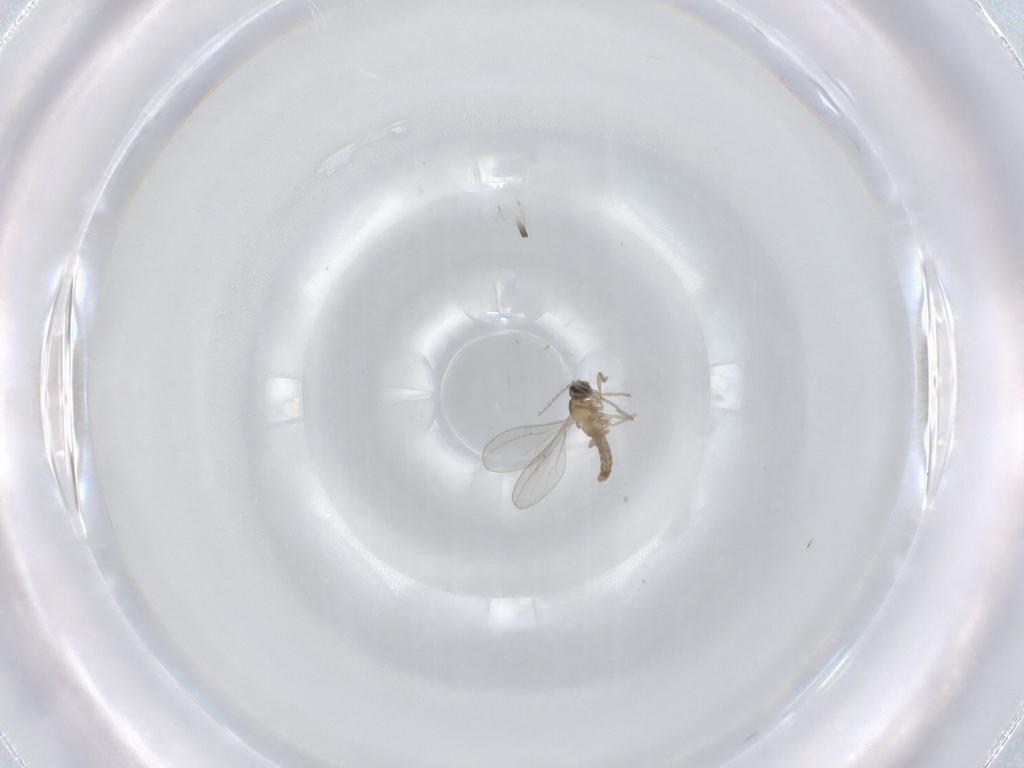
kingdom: Animalia
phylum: Arthropoda
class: Insecta
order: Diptera
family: Cecidomyiidae
